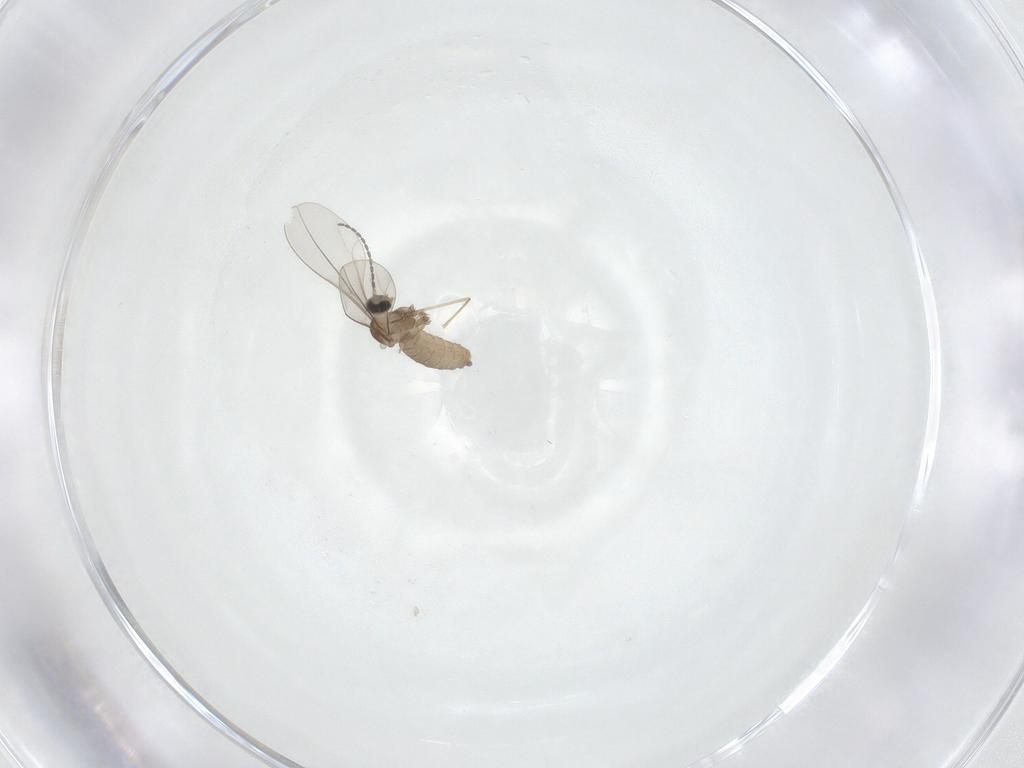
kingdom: Animalia
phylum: Arthropoda
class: Insecta
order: Diptera
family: Cecidomyiidae
